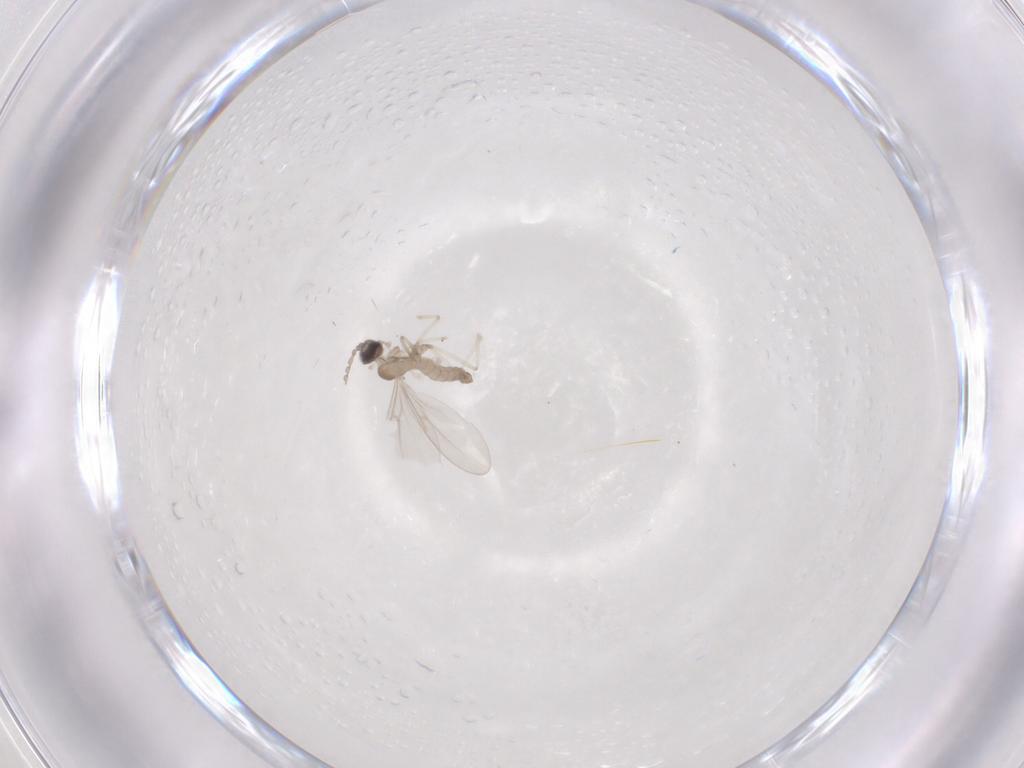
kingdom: Animalia
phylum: Arthropoda
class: Insecta
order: Diptera
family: Cecidomyiidae
